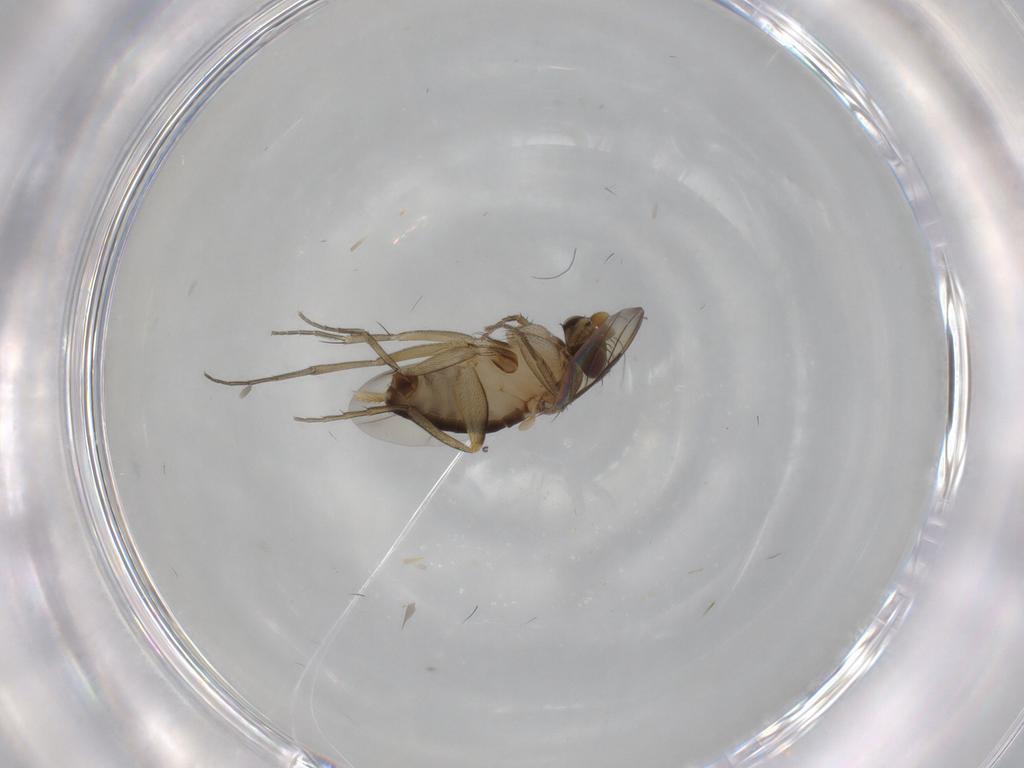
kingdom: Animalia
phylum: Arthropoda
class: Insecta
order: Diptera
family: Phoridae
